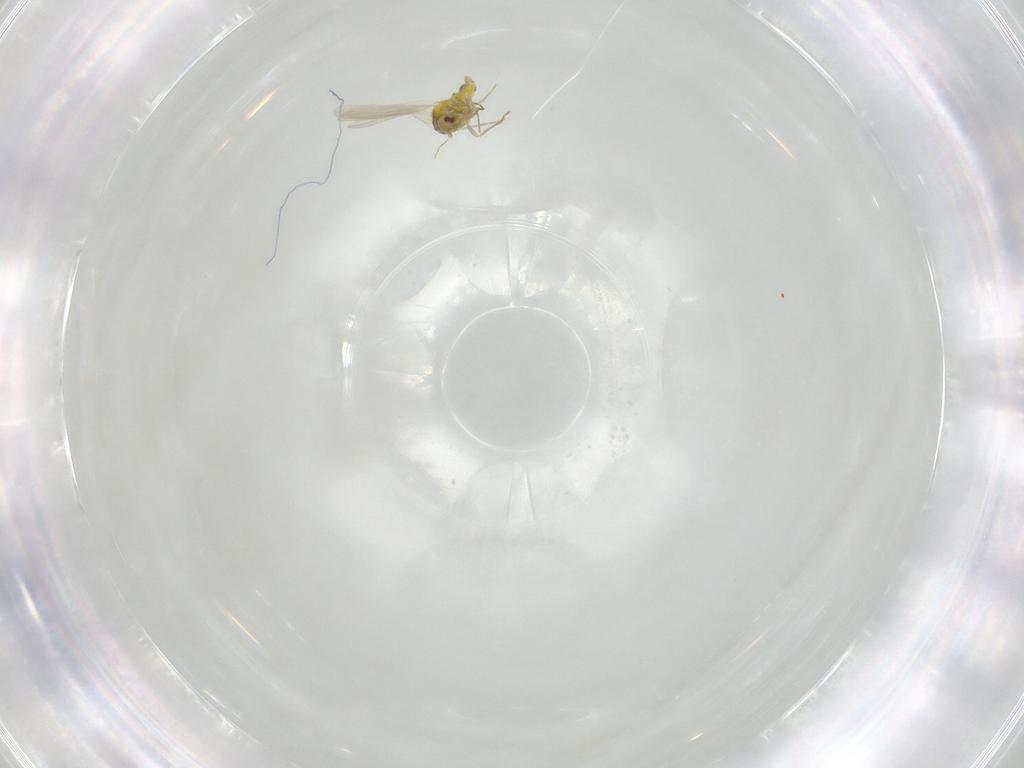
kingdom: Animalia
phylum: Arthropoda
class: Insecta
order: Hemiptera
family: Aleyrodidae
